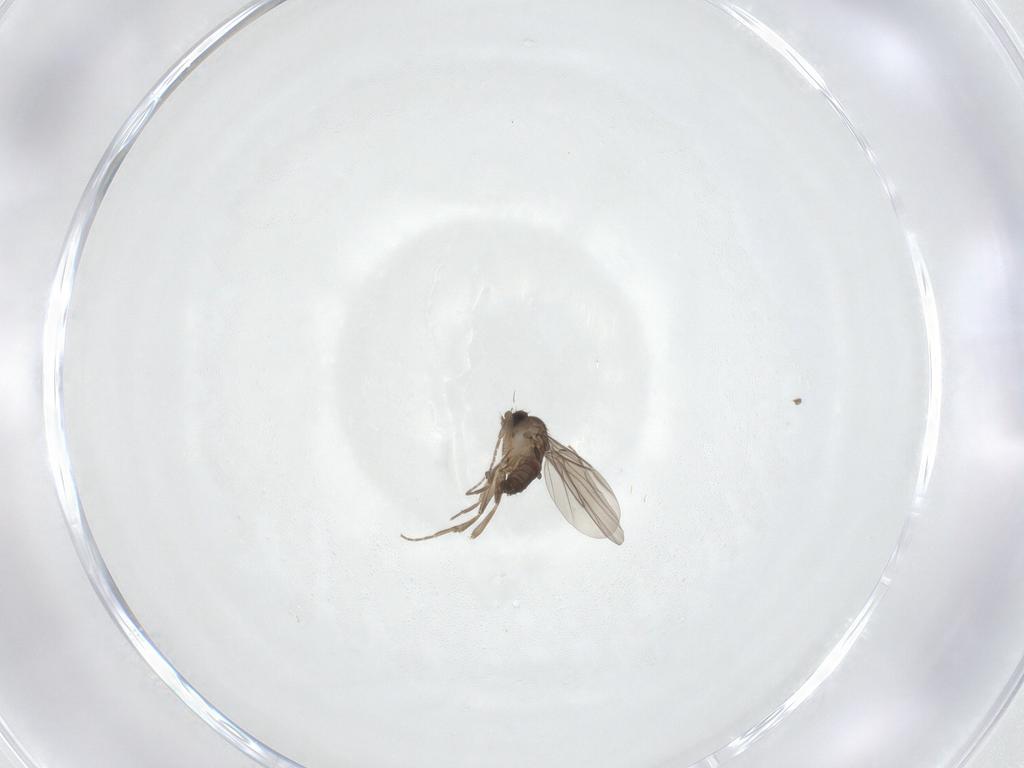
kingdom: Animalia
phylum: Arthropoda
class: Insecta
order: Diptera
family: Phoridae
